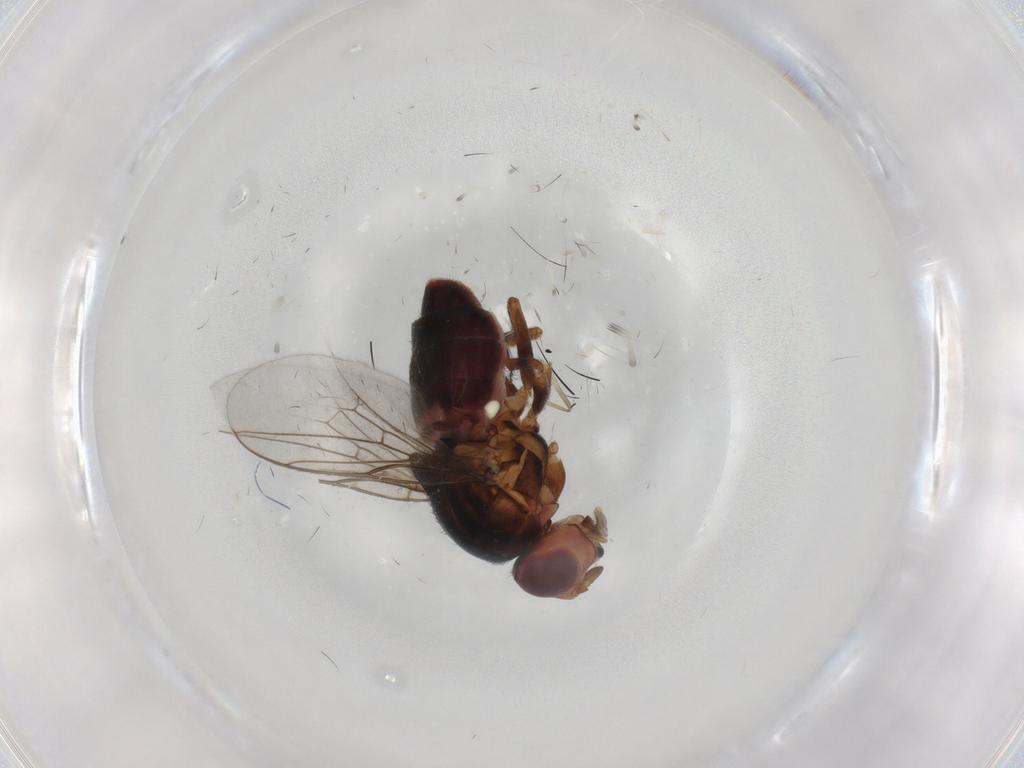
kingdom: Animalia
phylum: Arthropoda
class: Insecta
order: Diptera
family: Chloropidae
